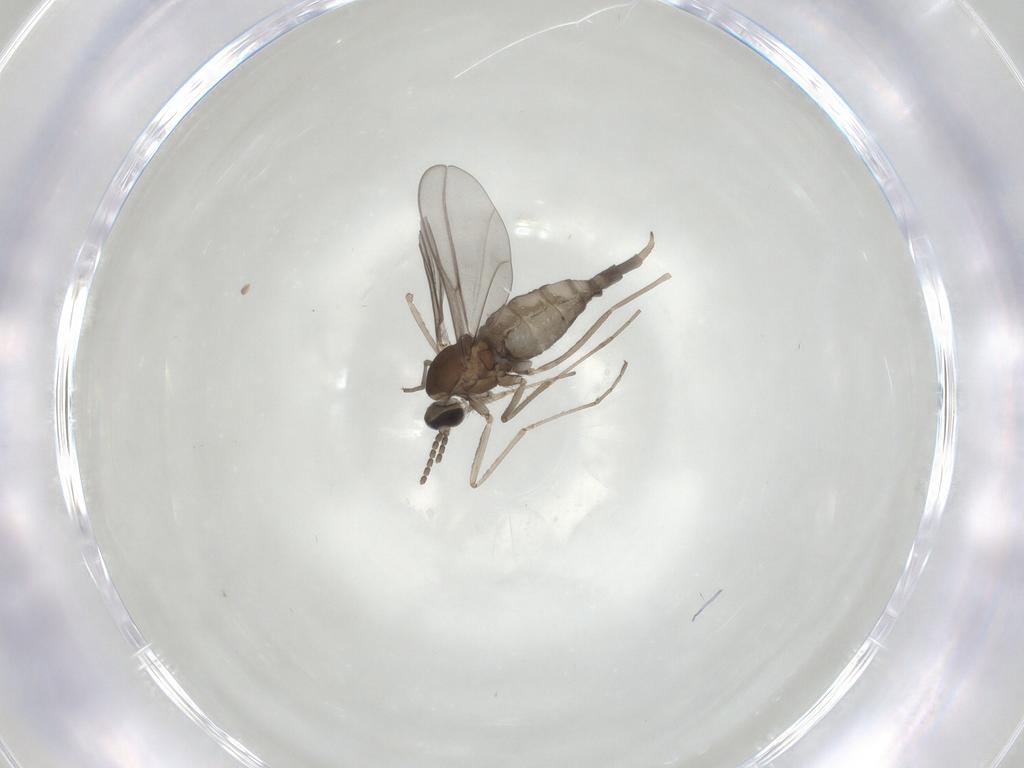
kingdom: Animalia
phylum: Arthropoda
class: Insecta
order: Diptera
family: Cecidomyiidae
